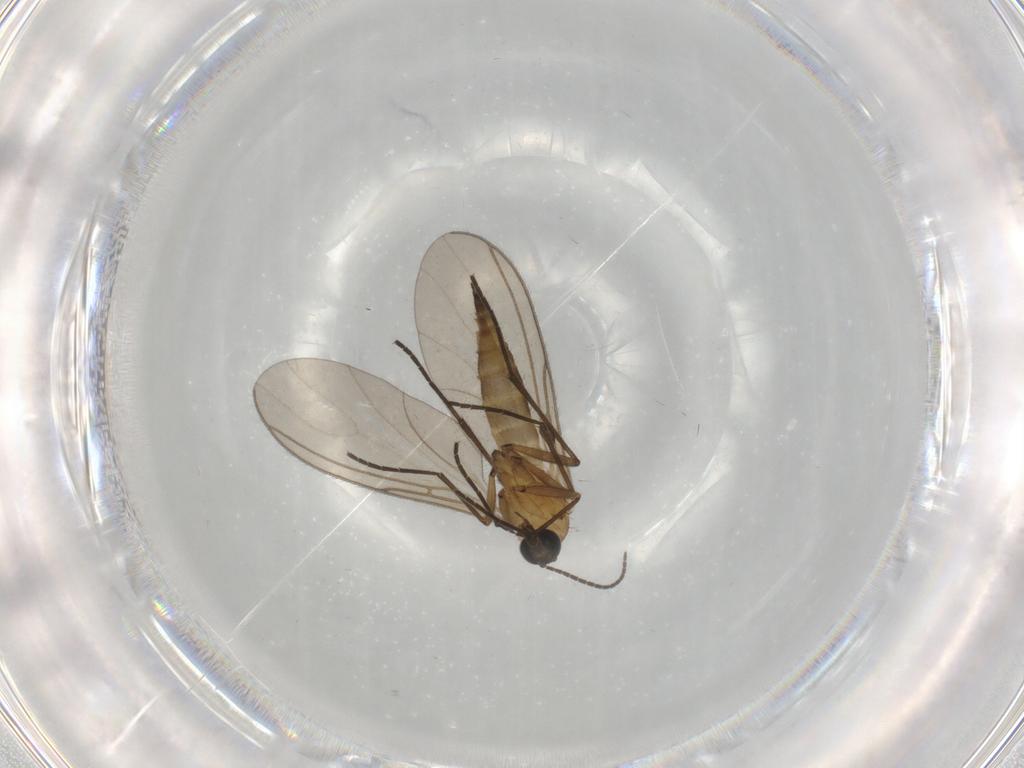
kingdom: Animalia
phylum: Arthropoda
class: Insecta
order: Diptera
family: Sciaridae
